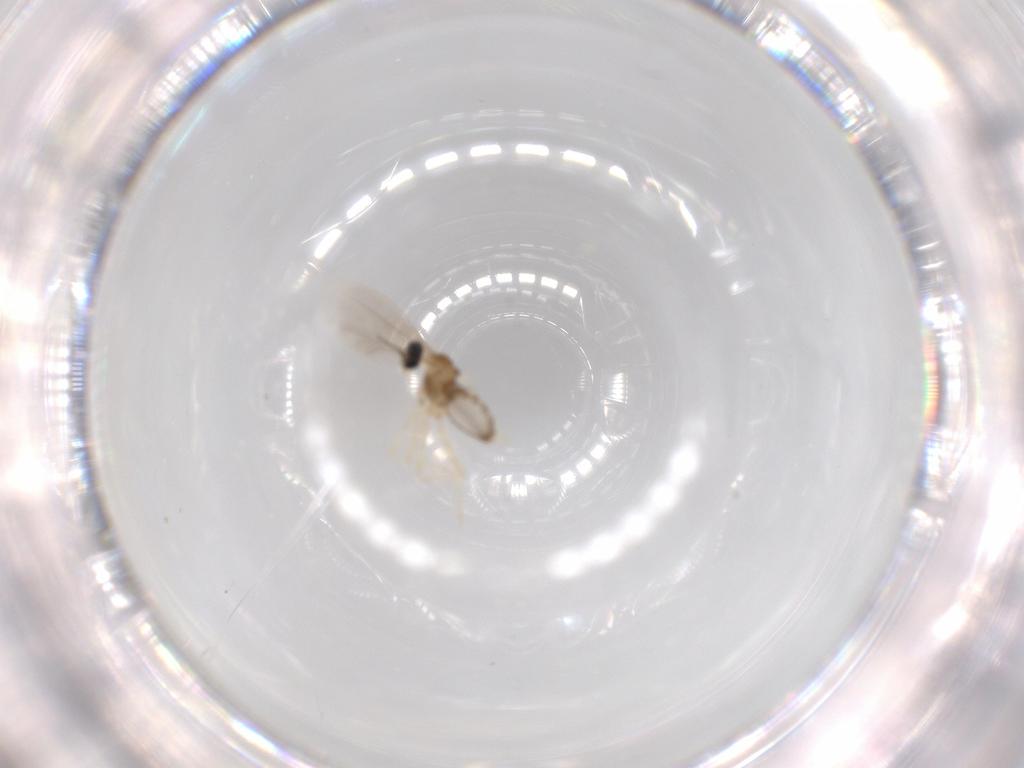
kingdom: Animalia
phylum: Arthropoda
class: Insecta
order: Diptera
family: Cecidomyiidae
